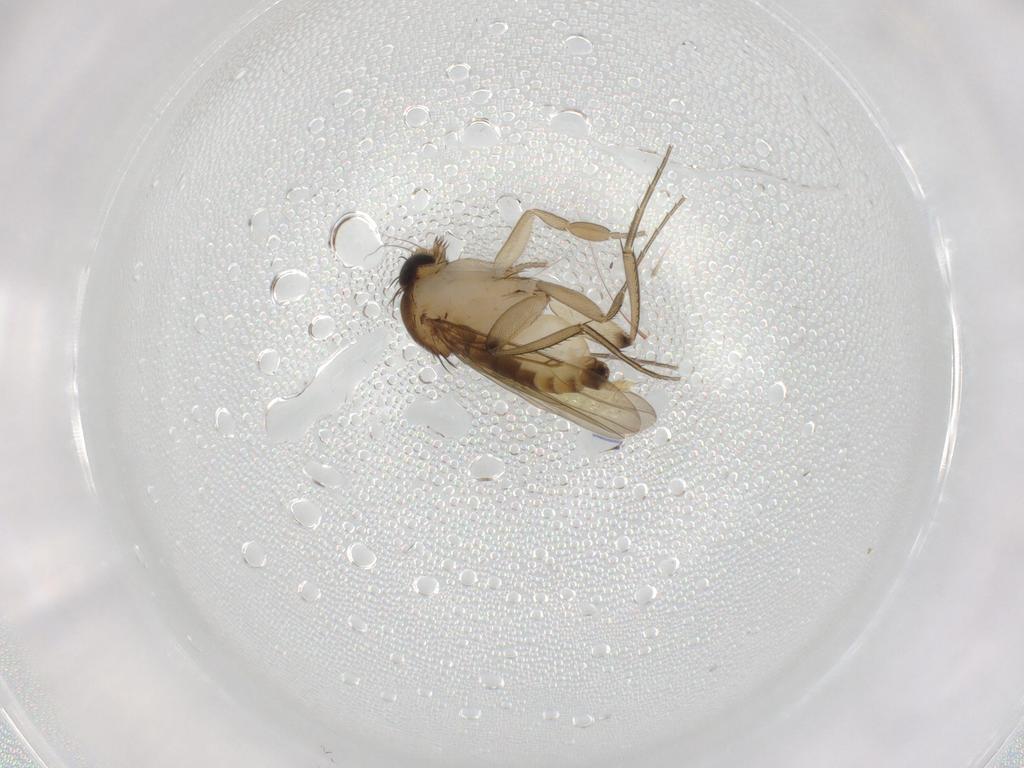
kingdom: Animalia
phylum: Arthropoda
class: Insecta
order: Diptera
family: Phoridae
